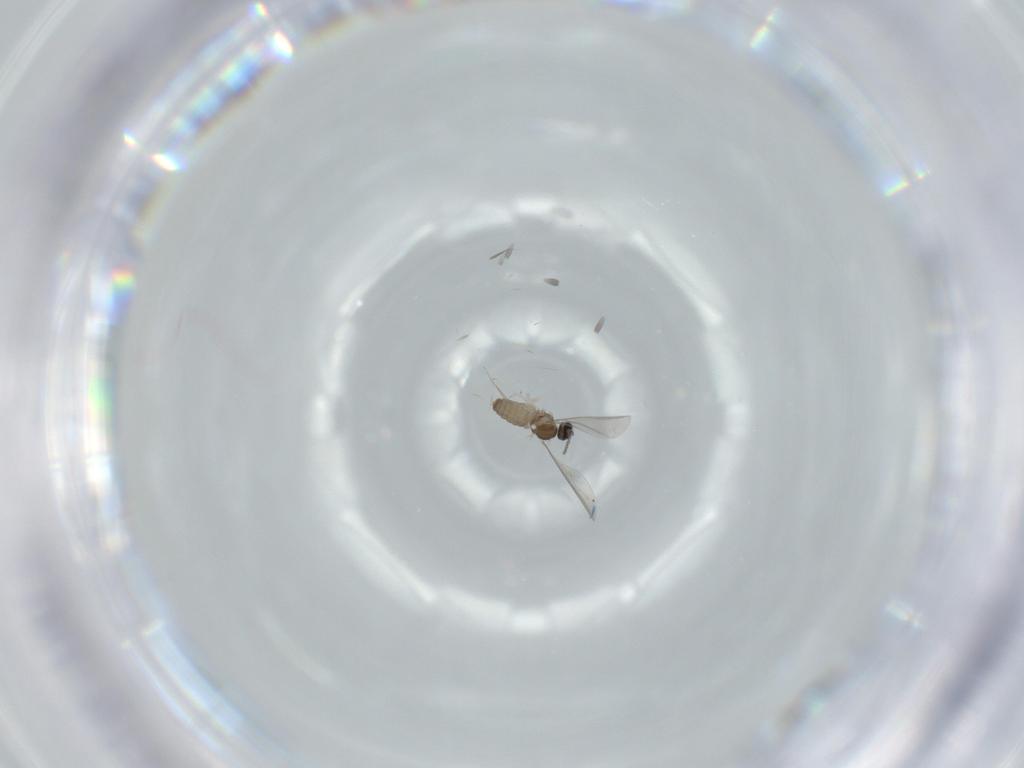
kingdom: Animalia
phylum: Arthropoda
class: Insecta
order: Diptera
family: Cecidomyiidae
